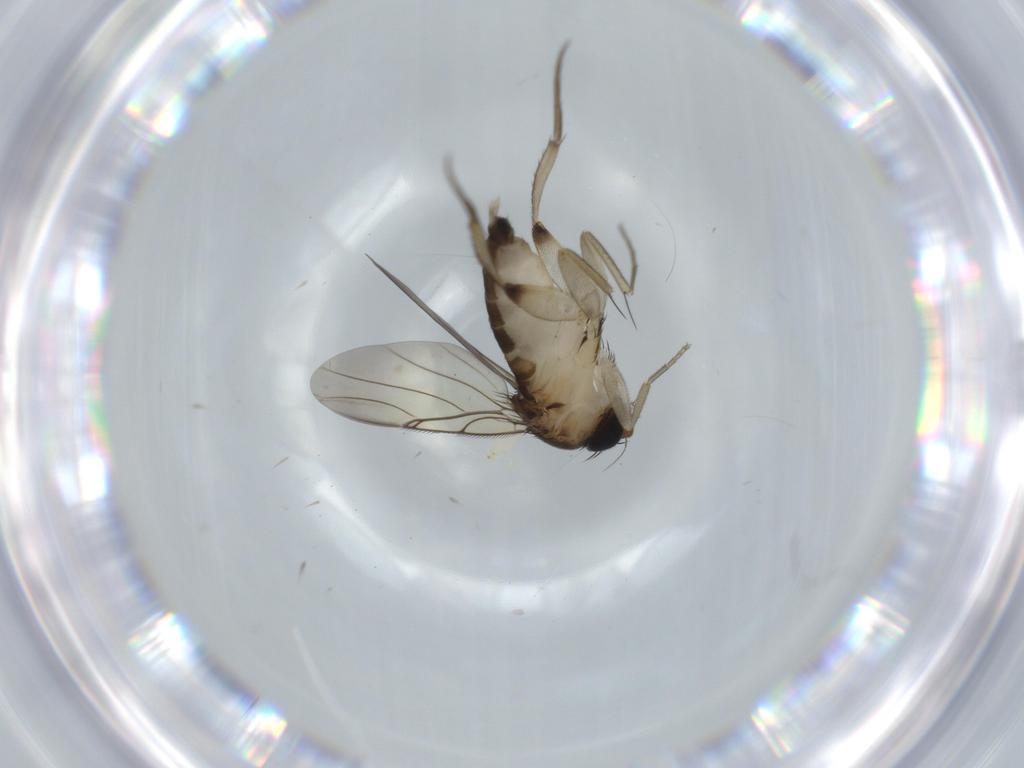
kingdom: Animalia
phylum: Arthropoda
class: Insecta
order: Diptera
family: Phoridae
